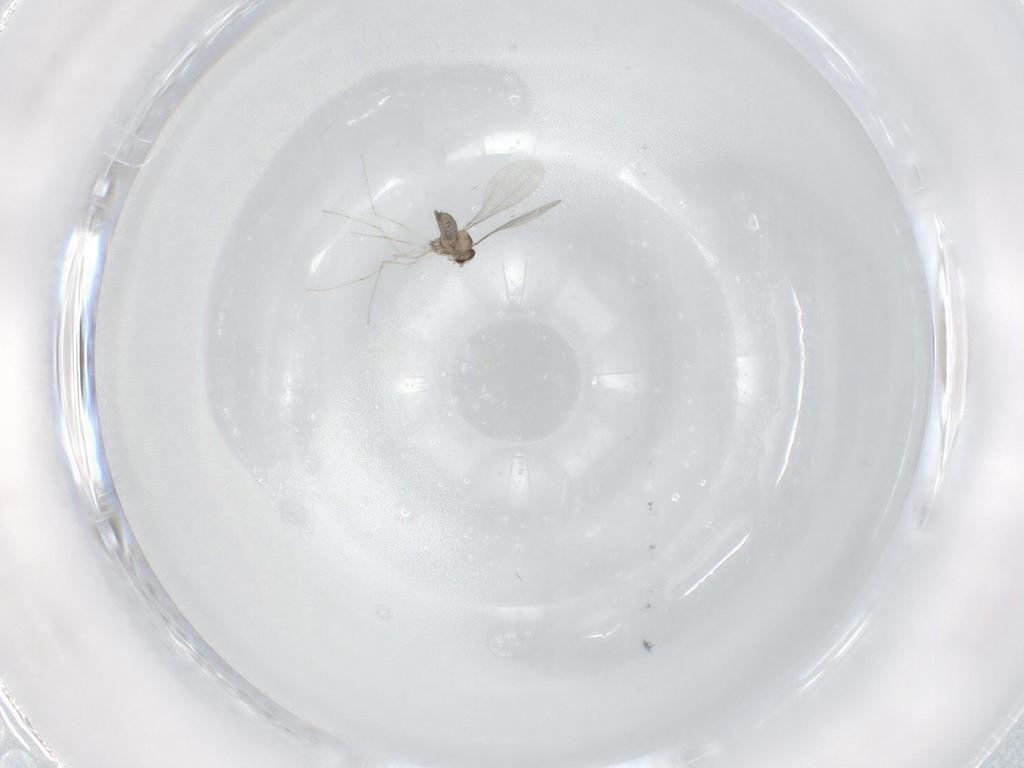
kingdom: Animalia
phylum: Arthropoda
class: Insecta
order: Diptera
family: Cecidomyiidae
